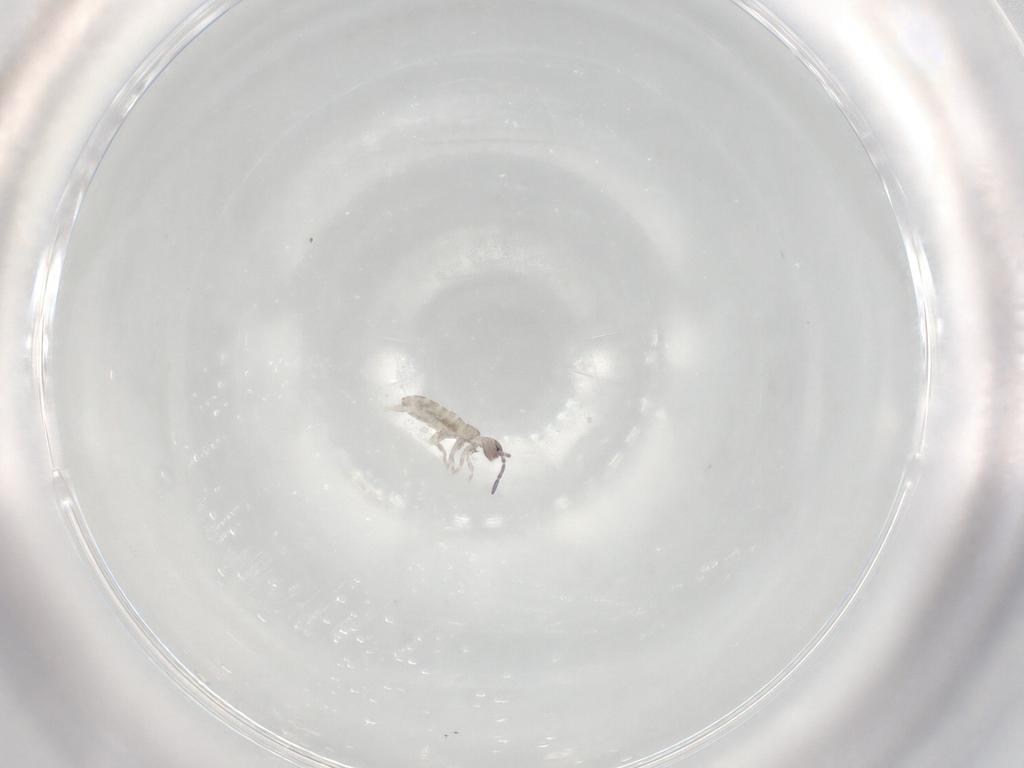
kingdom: Animalia
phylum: Arthropoda
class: Collembola
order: Entomobryomorpha
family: Tomoceridae
